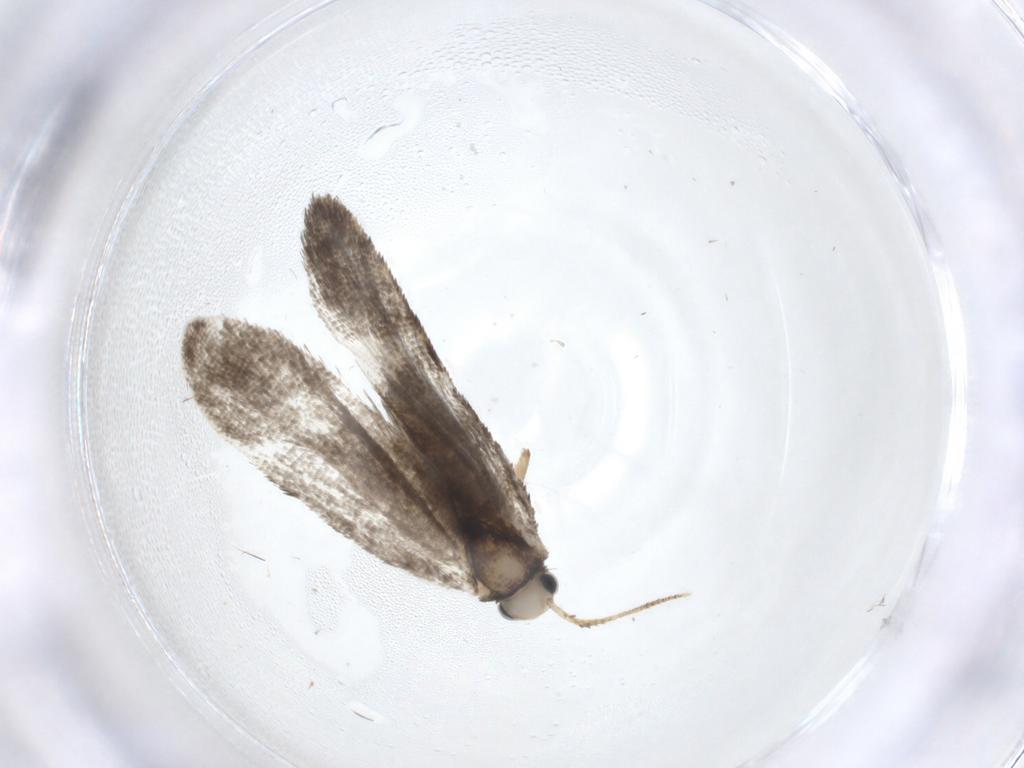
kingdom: Animalia
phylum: Arthropoda
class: Insecta
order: Lepidoptera
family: Psychidae
